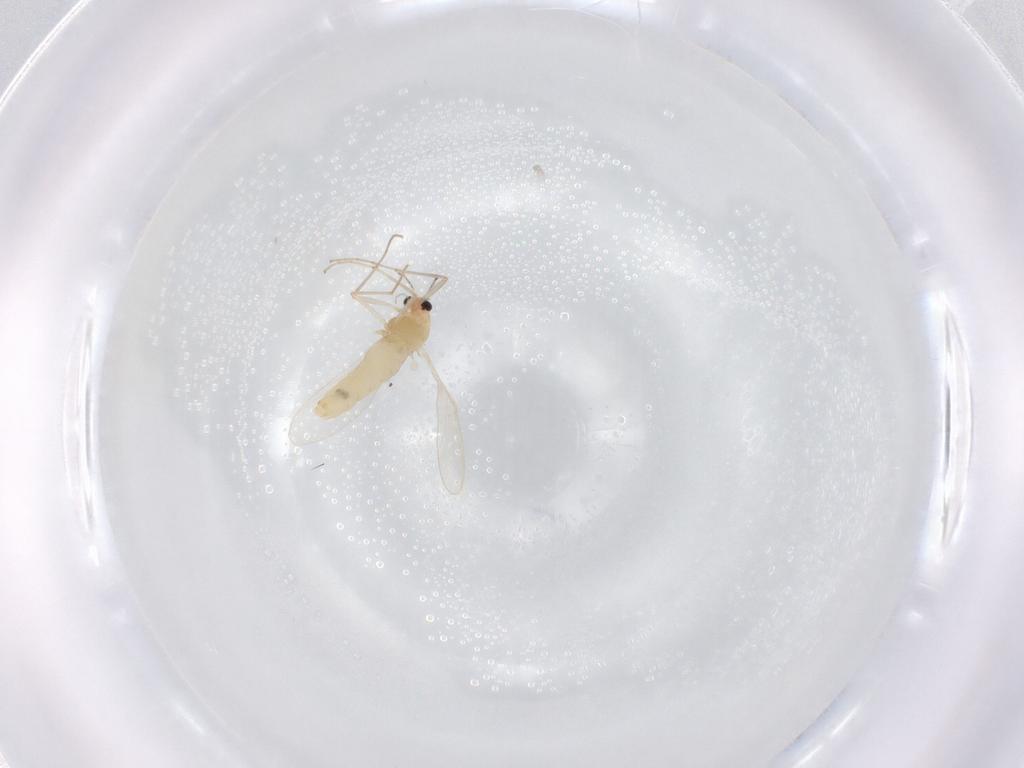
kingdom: Animalia
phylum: Arthropoda
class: Insecta
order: Diptera
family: Chironomidae
